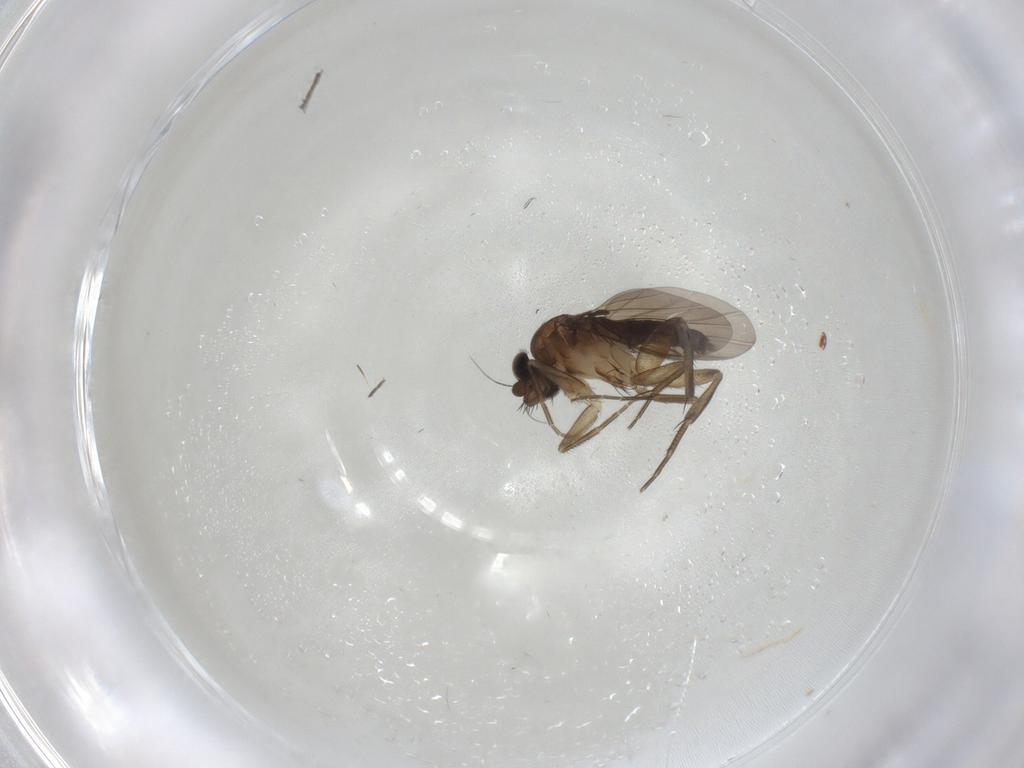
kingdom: Animalia
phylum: Arthropoda
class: Insecta
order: Diptera
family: Phoridae
